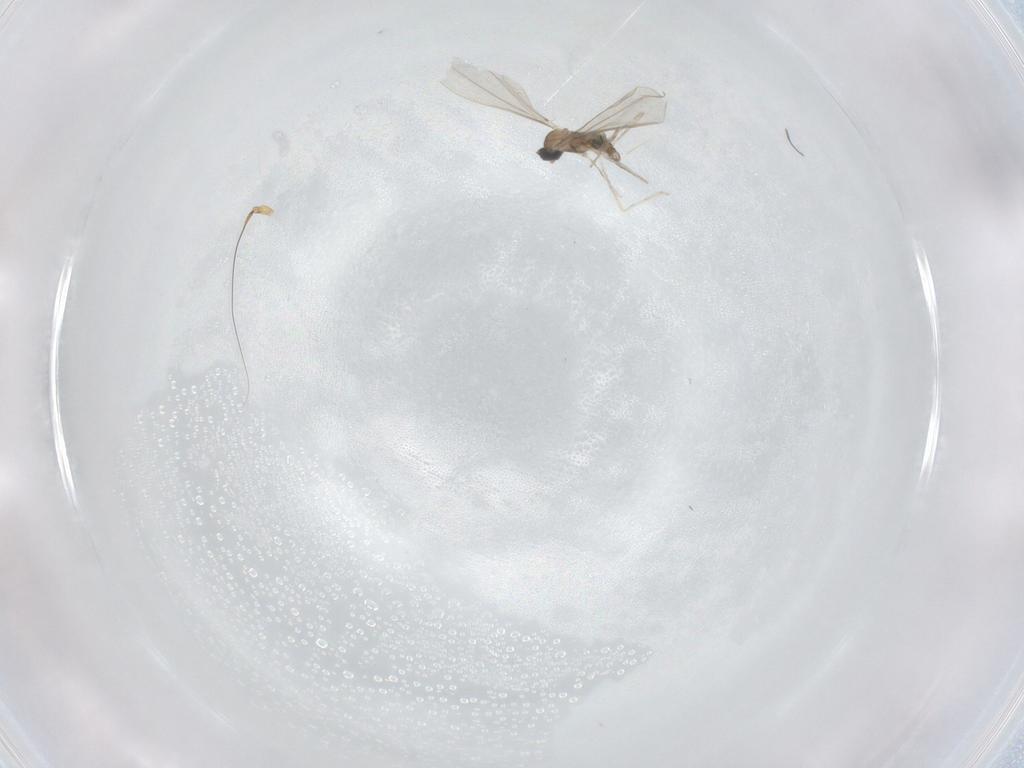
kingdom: Animalia
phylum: Arthropoda
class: Insecta
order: Diptera
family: Cecidomyiidae
